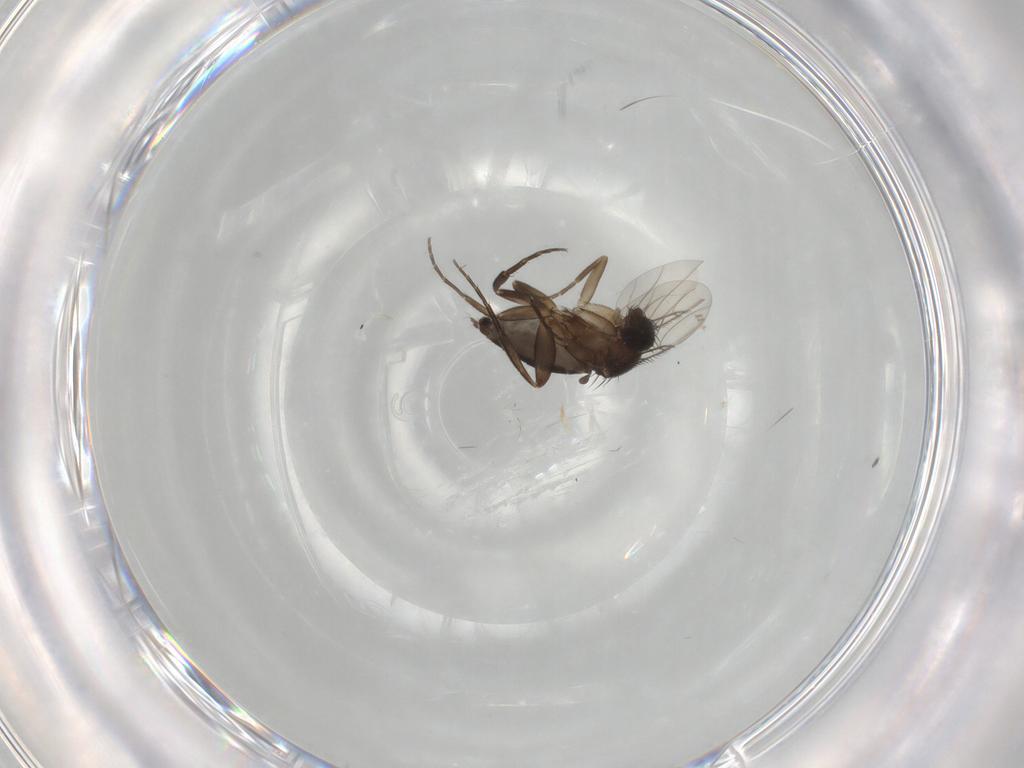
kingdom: Animalia
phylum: Arthropoda
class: Insecta
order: Diptera
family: Phoridae
